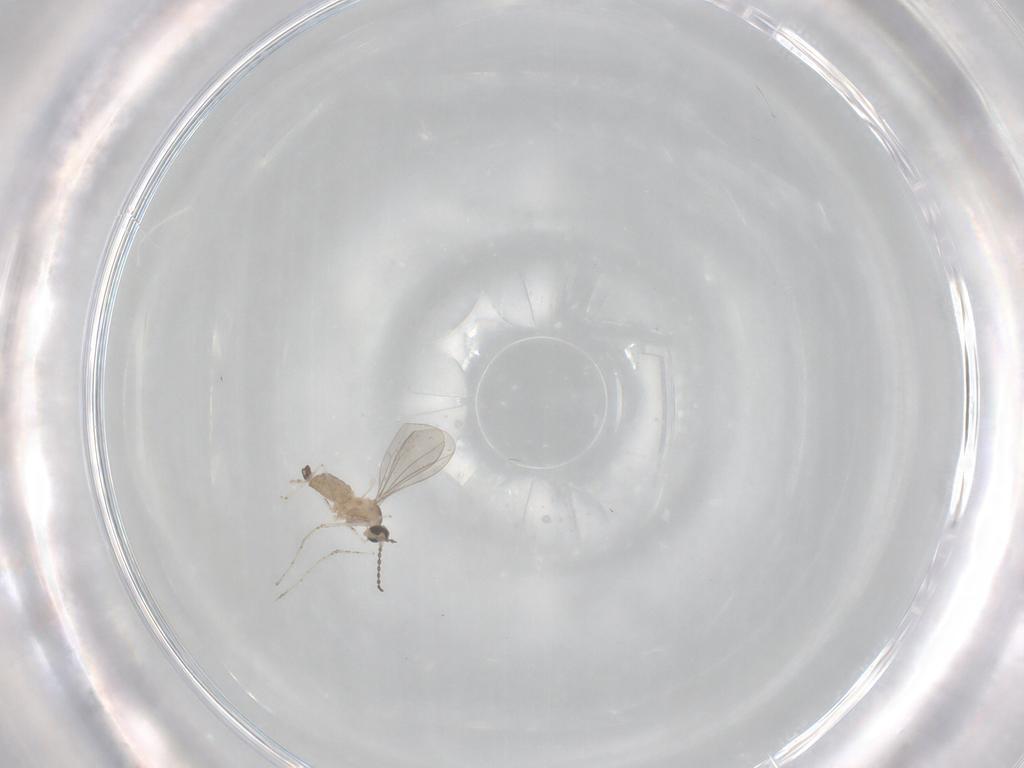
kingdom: Animalia
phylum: Arthropoda
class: Insecta
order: Diptera
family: Cecidomyiidae
